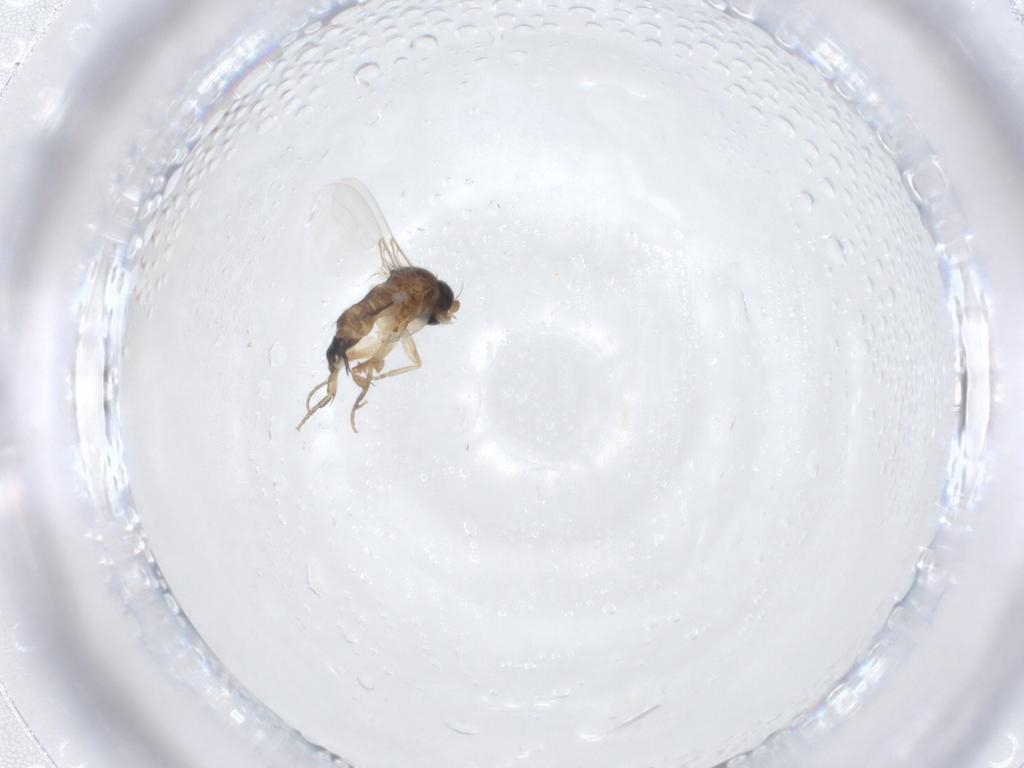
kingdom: Animalia
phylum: Arthropoda
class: Insecta
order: Diptera
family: Phoridae
